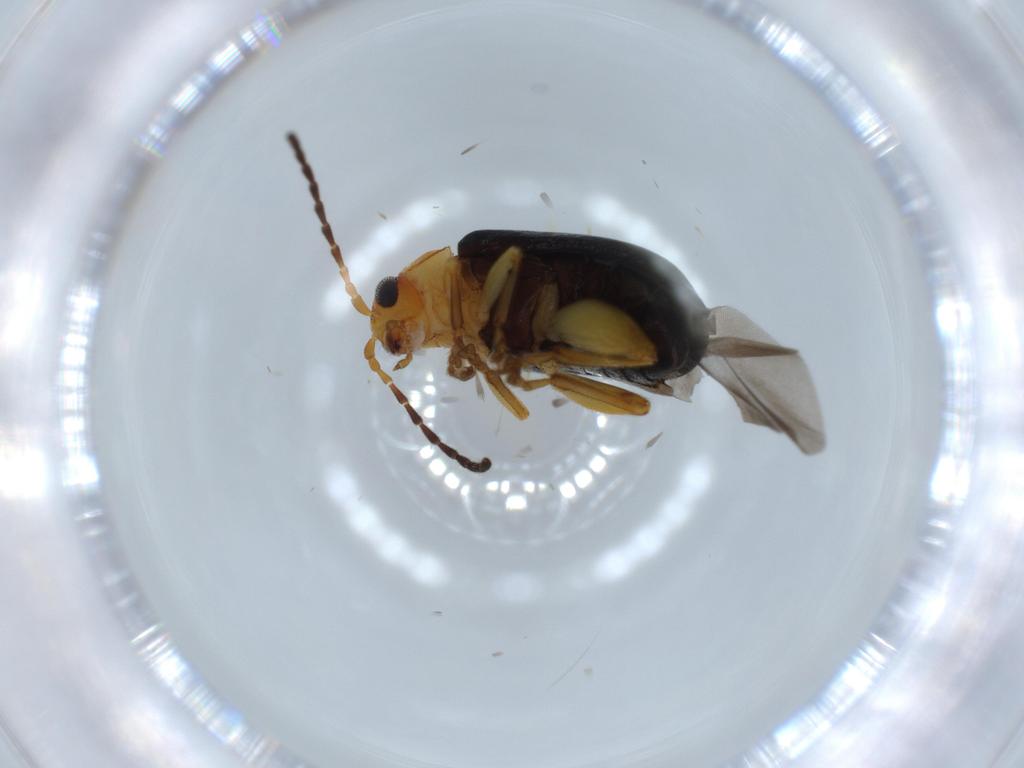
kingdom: Animalia
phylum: Arthropoda
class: Insecta
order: Coleoptera
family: Chrysomelidae
